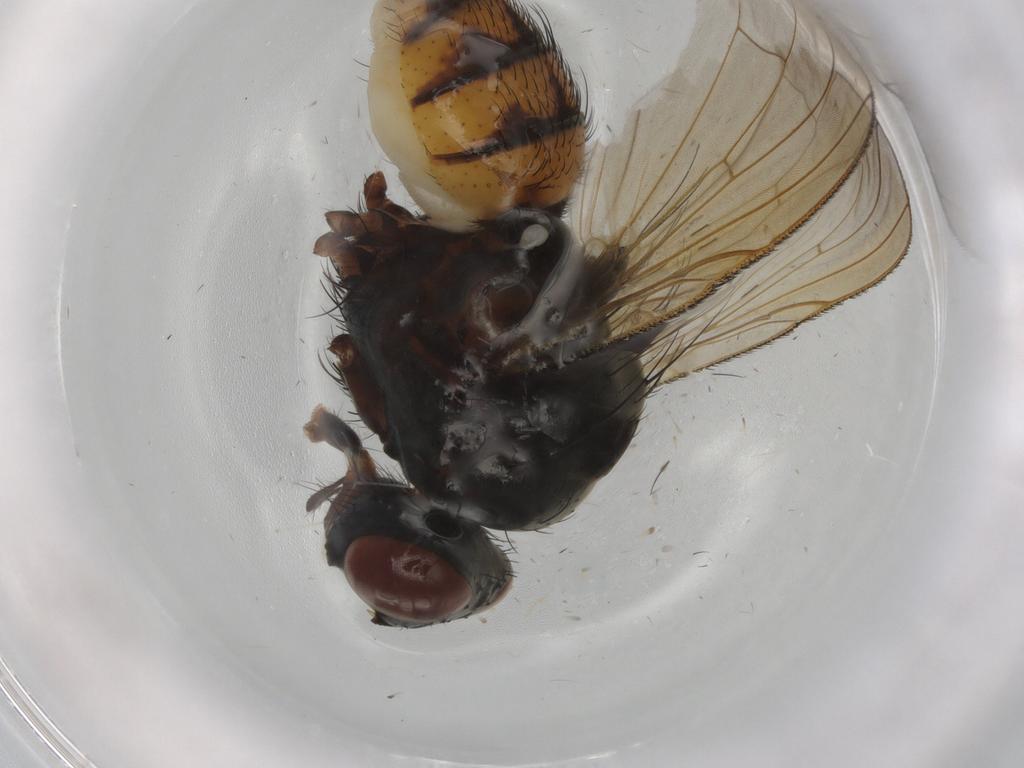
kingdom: Animalia
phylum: Arthropoda
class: Insecta
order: Diptera
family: Anthomyiidae
